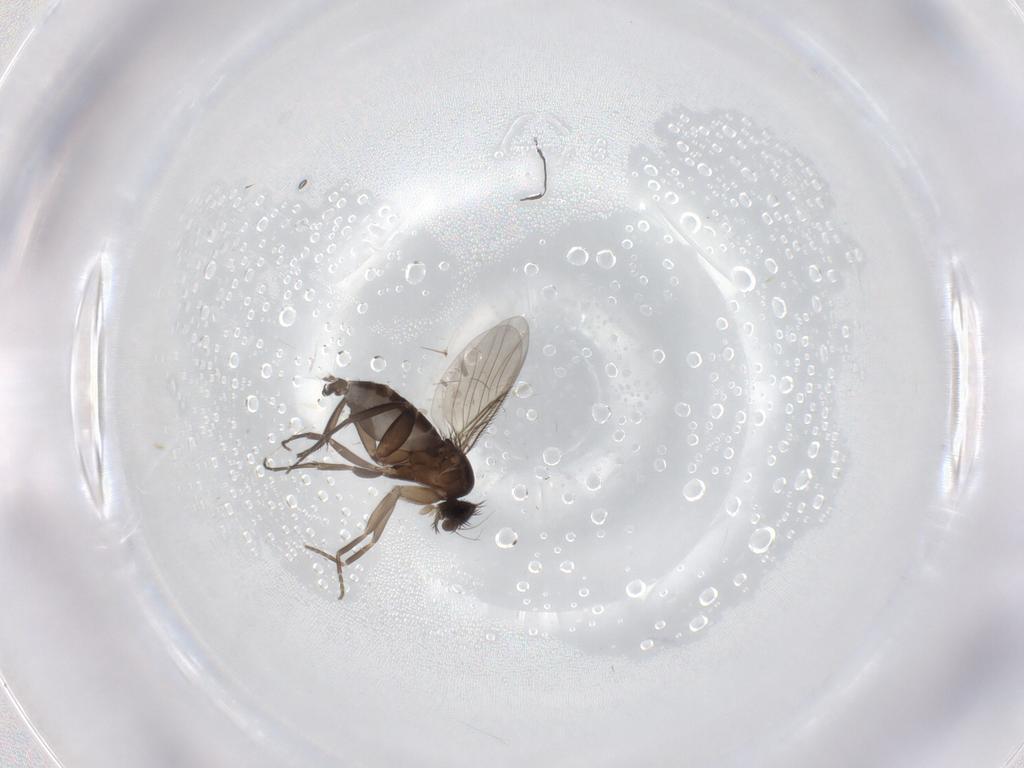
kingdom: Animalia
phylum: Arthropoda
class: Insecta
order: Diptera
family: Phoridae
